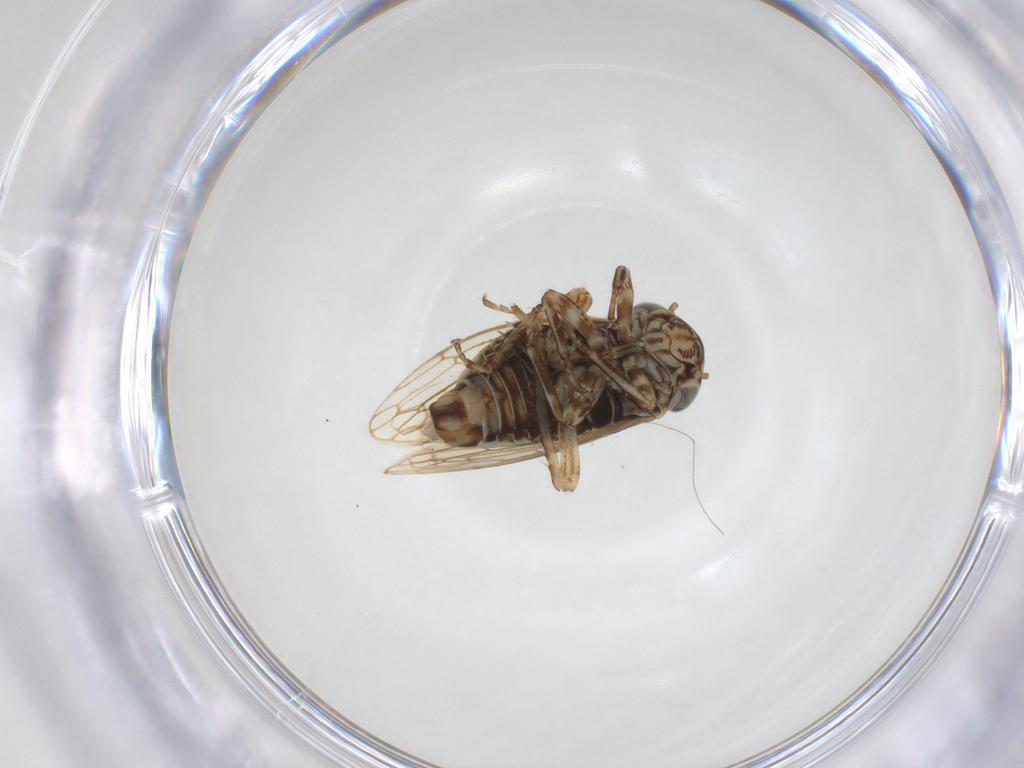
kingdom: Animalia
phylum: Arthropoda
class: Insecta
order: Hemiptera
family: Cicadellidae
